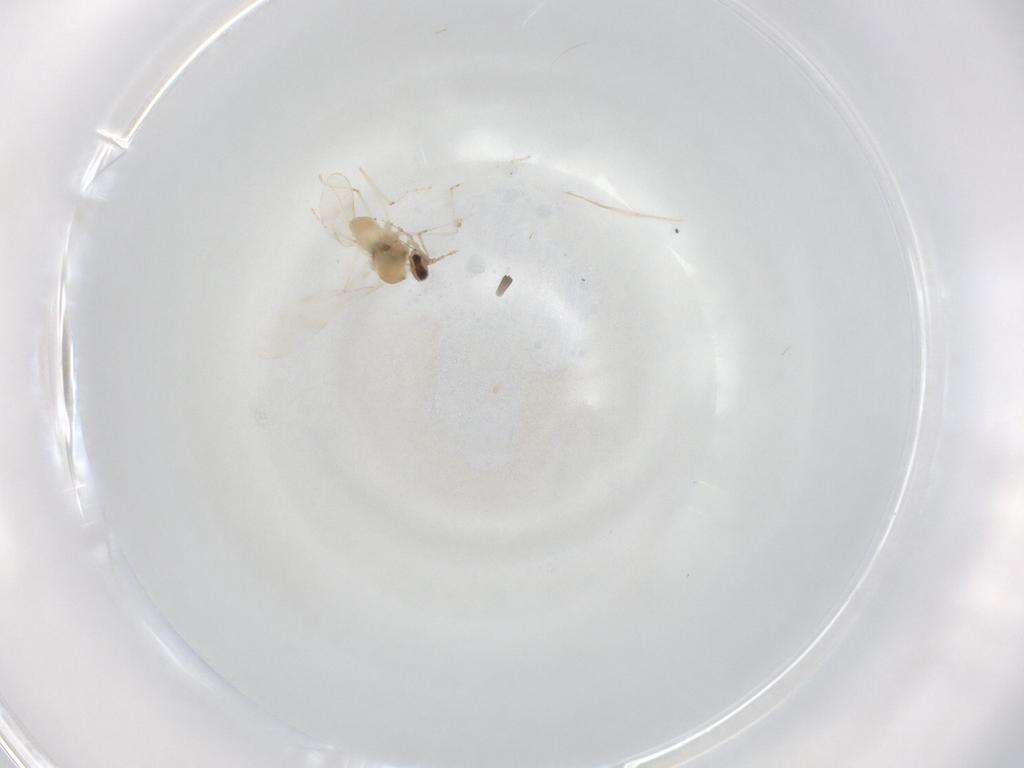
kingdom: Animalia
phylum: Arthropoda
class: Insecta
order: Diptera
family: Cecidomyiidae
